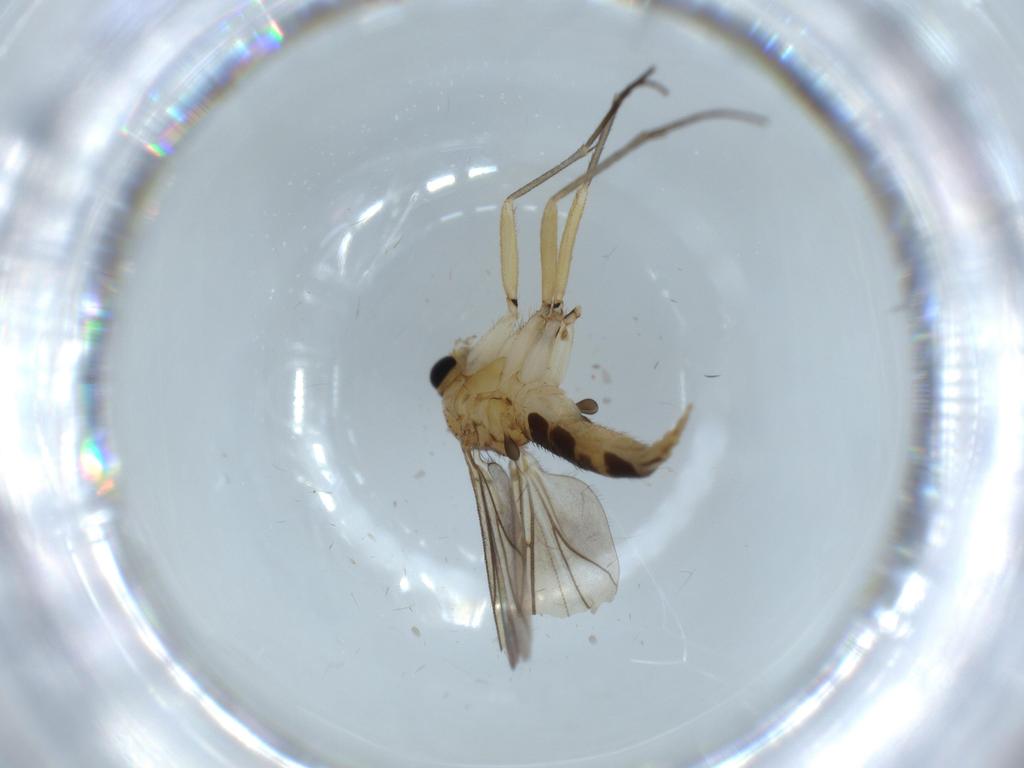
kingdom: Animalia
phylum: Arthropoda
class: Insecta
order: Diptera
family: Sciaridae
